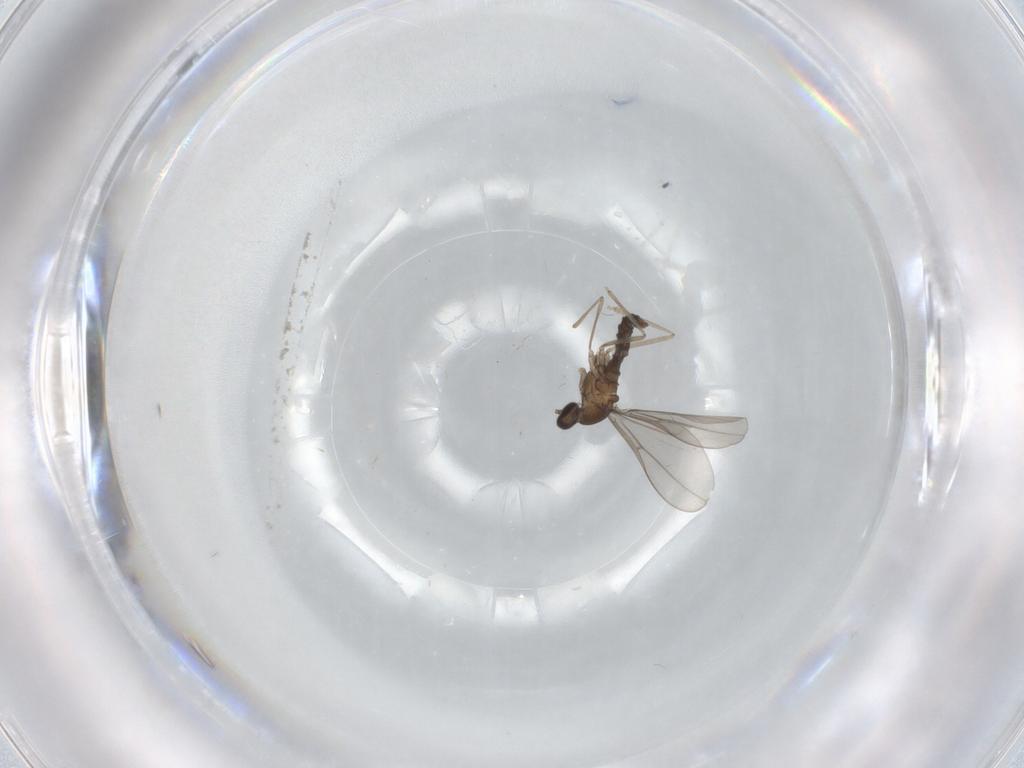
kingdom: Animalia
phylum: Arthropoda
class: Insecta
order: Diptera
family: Cecidomyiidae
